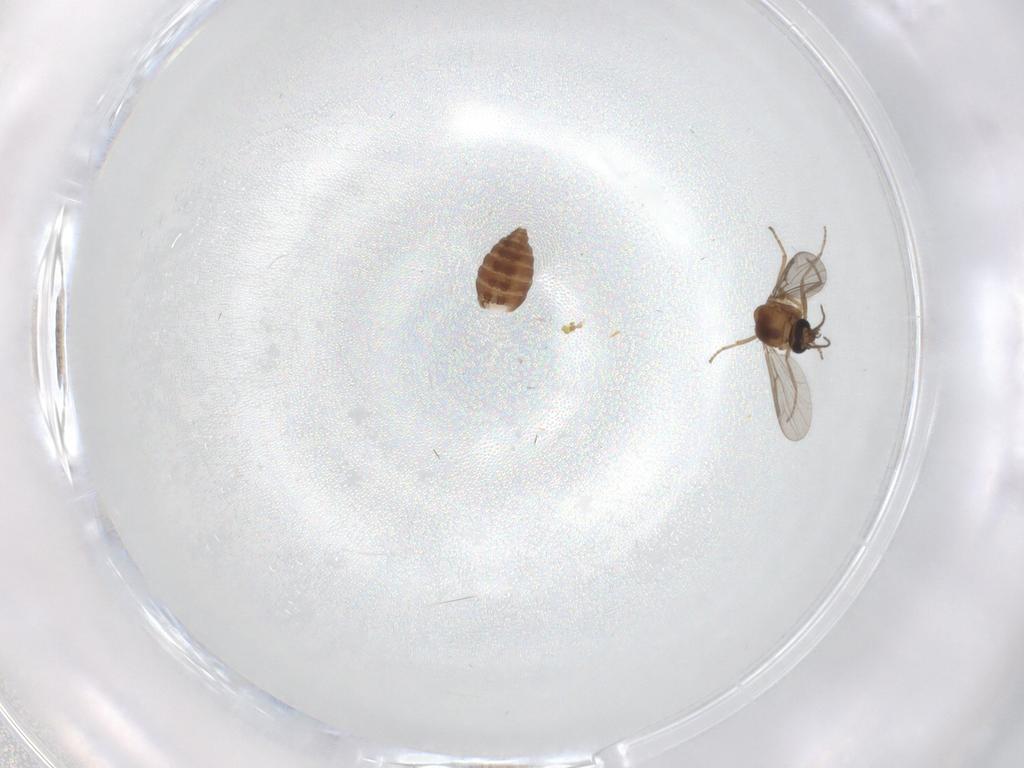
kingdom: Animalia
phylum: Arthropoda
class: Insecta
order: Diptera
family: Ceratopogonidae
